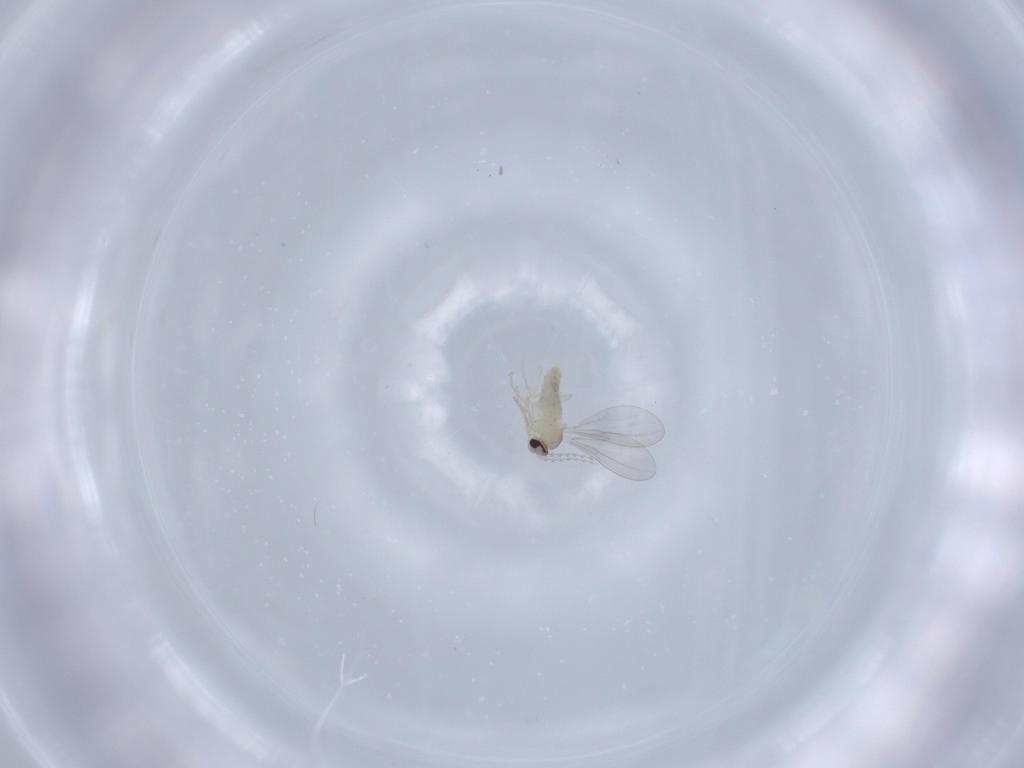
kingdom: Animalia
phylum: Arthropoda
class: Insecta
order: Diptera
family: Cecidomyiidae
